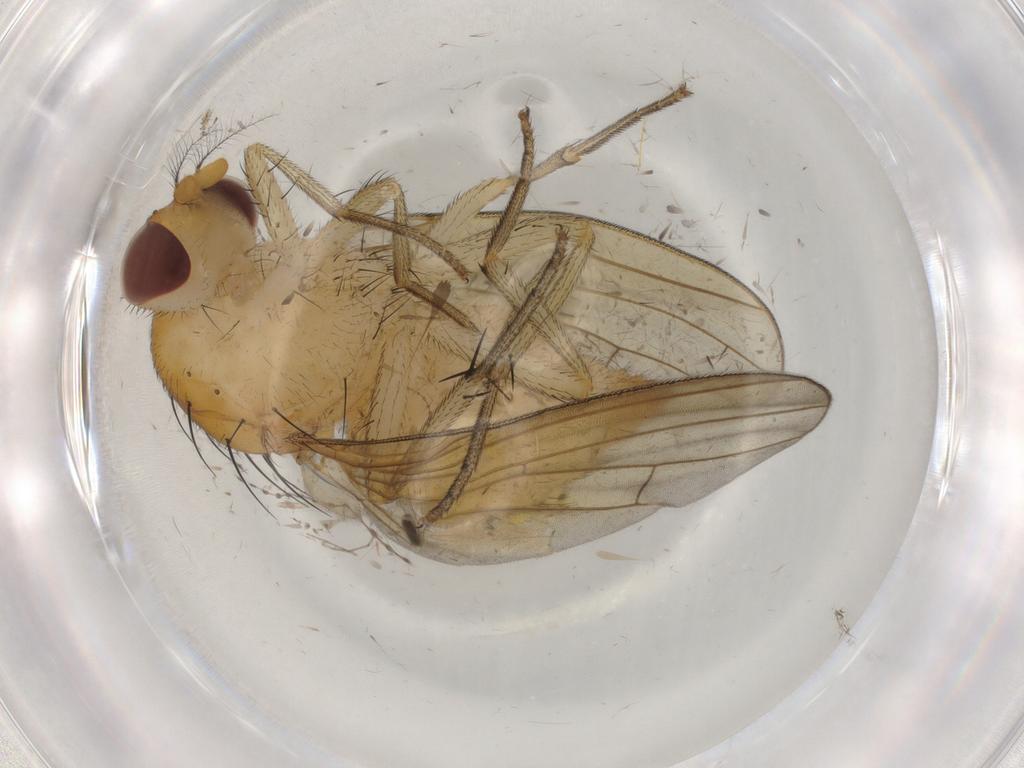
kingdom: Animalia
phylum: Arthropoda
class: Insecta
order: Diptera
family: Cecidomyiidae
